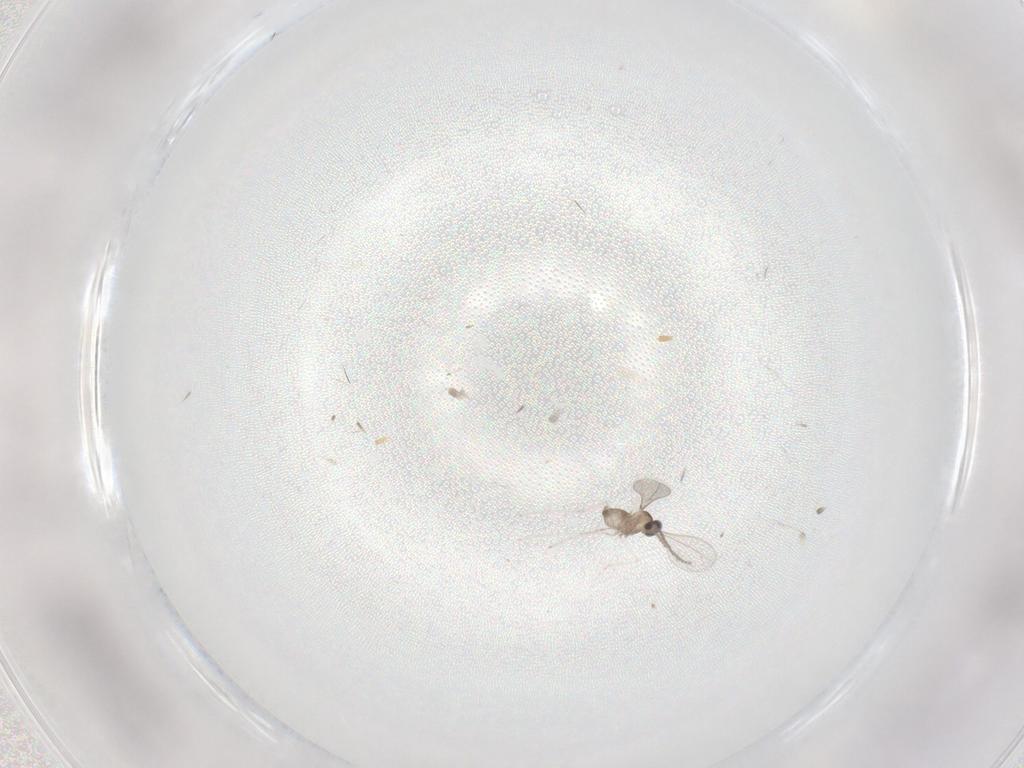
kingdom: Animalia
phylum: Arthropoda
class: Insecta
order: Diptera
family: Cecidomyiidae
